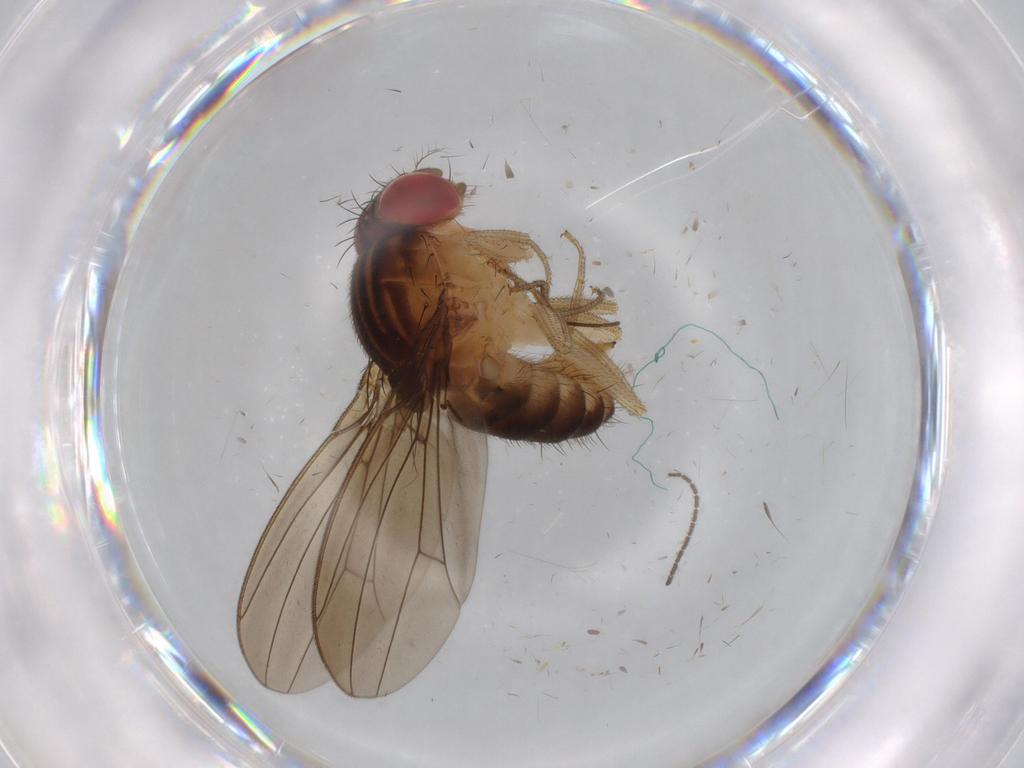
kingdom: Animalia
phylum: Arthropoda
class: Insecta
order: Diptera
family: Drosophilidae
